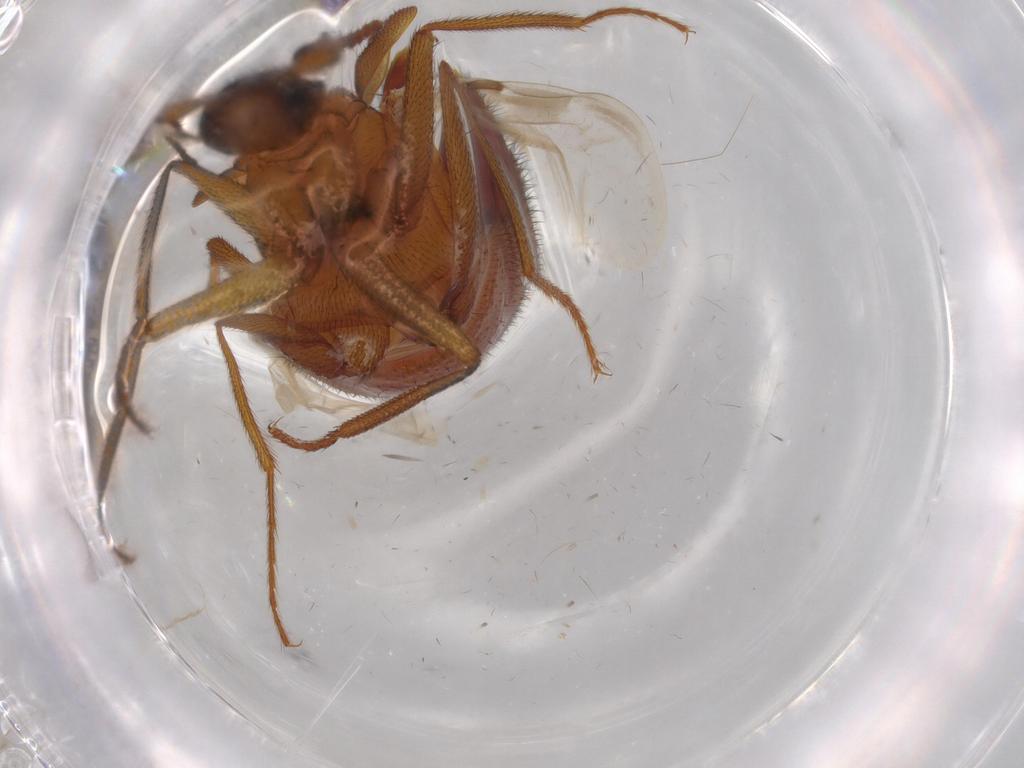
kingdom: Animalia
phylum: Arthropoda
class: Insecta
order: Coleoptera
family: Staphylinidae
